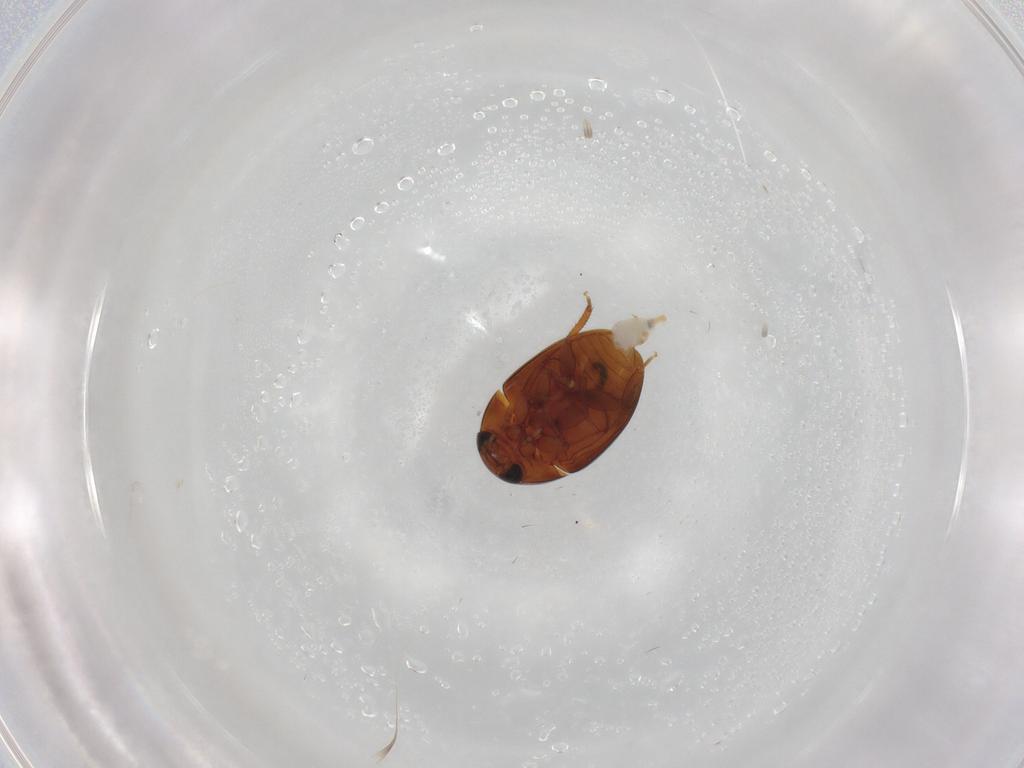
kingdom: Animalia
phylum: Arthropoda
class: Insecta
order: Coleoptera
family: Phalacridae
